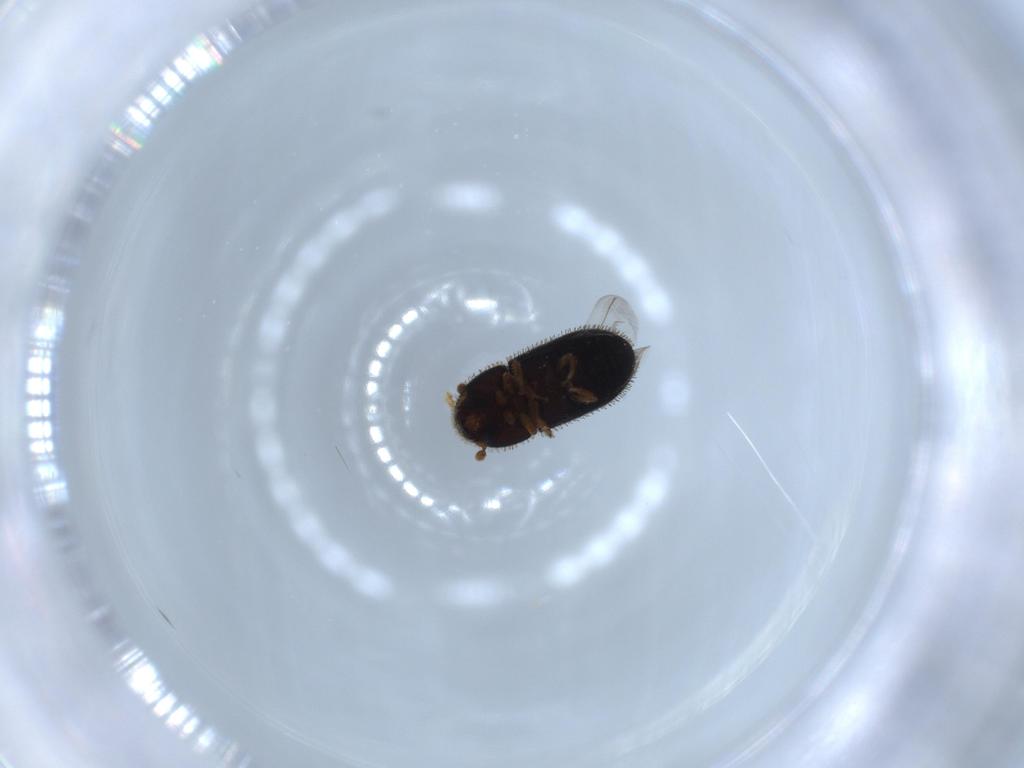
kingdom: Animalia
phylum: Arthropoda
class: Insecta
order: Coleoptera
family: Curculionidae
